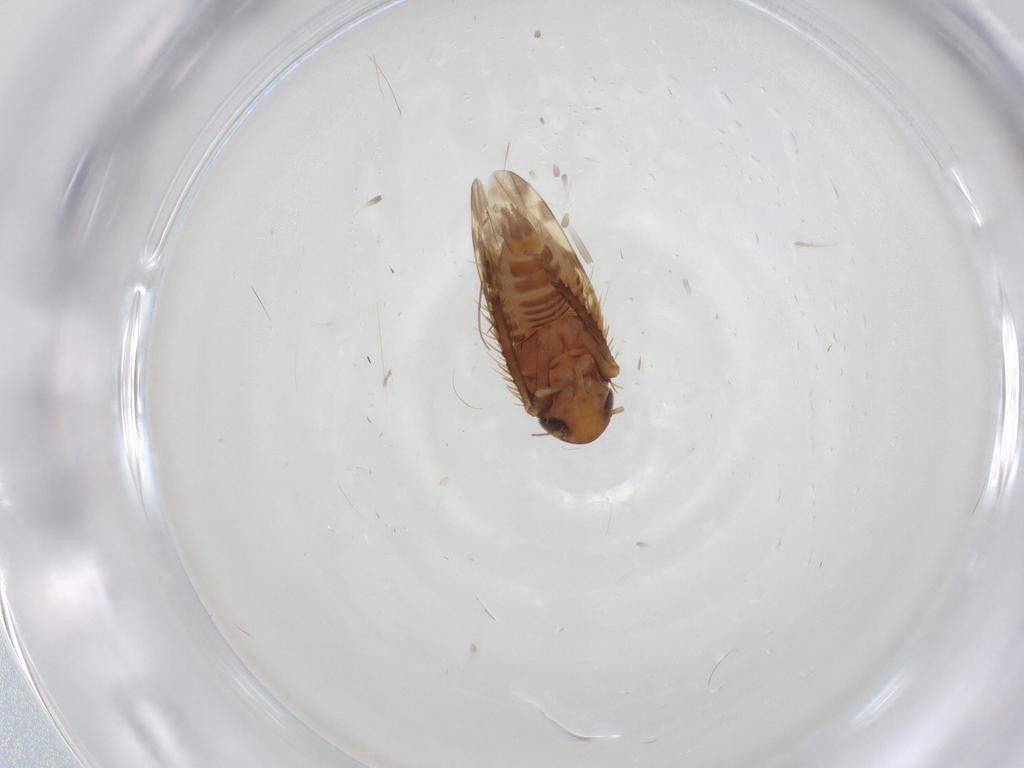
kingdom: Animalia
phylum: Arthropoda
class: Insecta
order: Hemiptera
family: Cicadellidae
